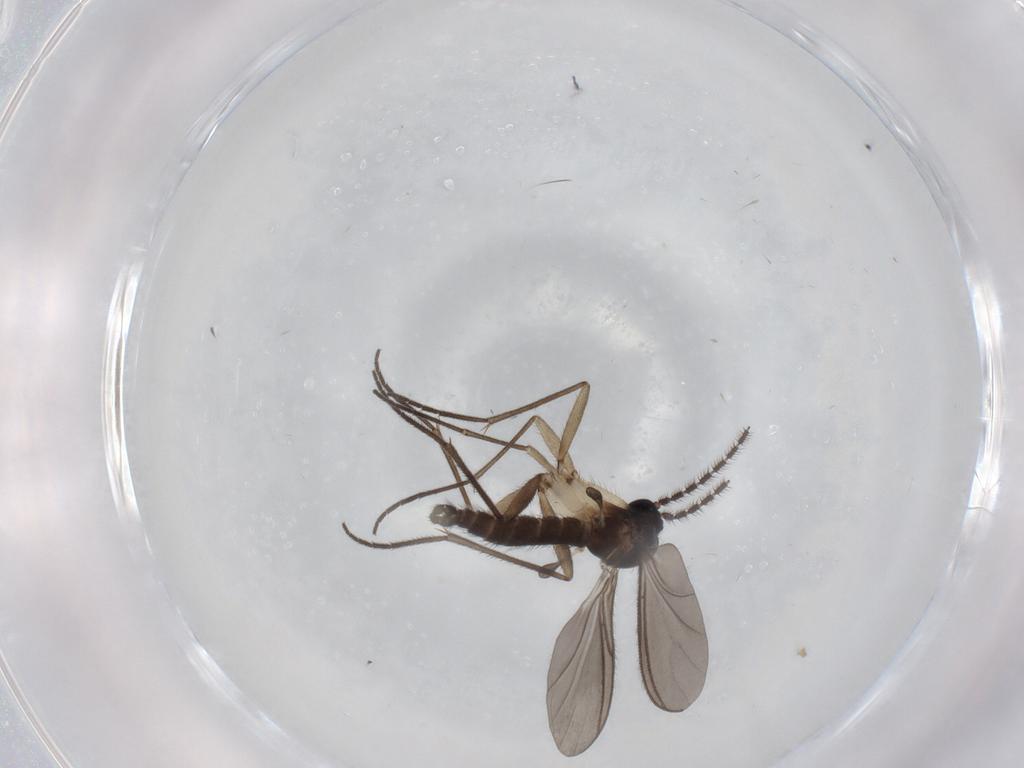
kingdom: Animalia
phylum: Arthropoda
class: Insecta
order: Diptera
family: Sciaridae
